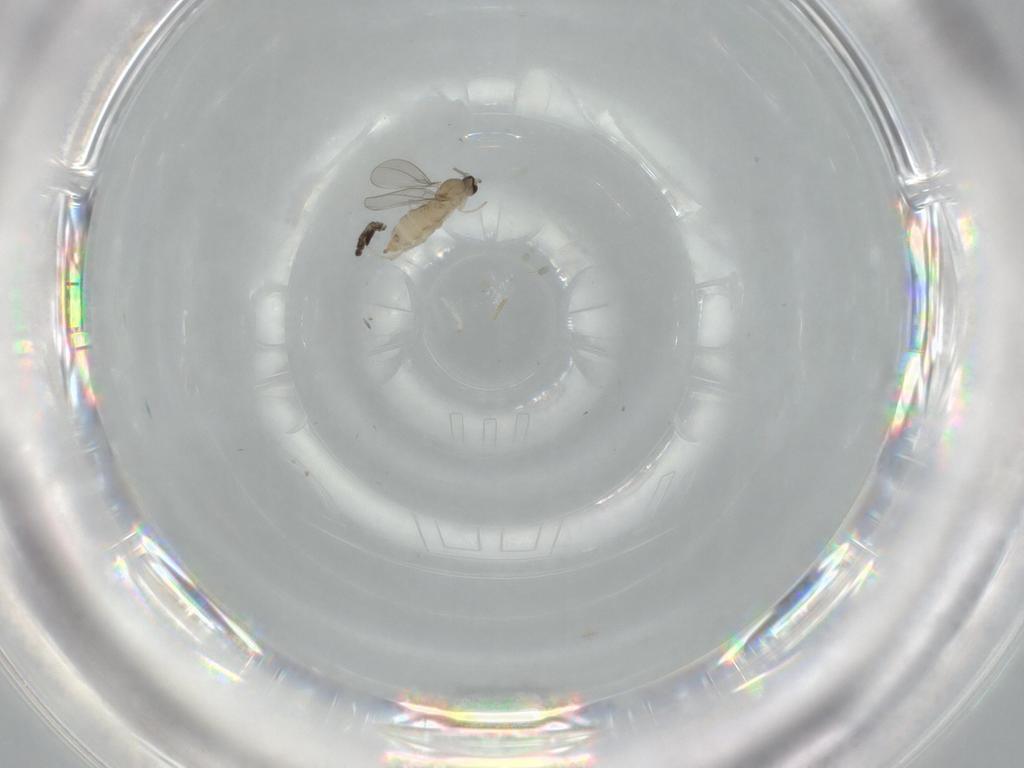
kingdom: Animalia
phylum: Arthropoda
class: Insecta
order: Diptera
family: Cecidomyiidae
